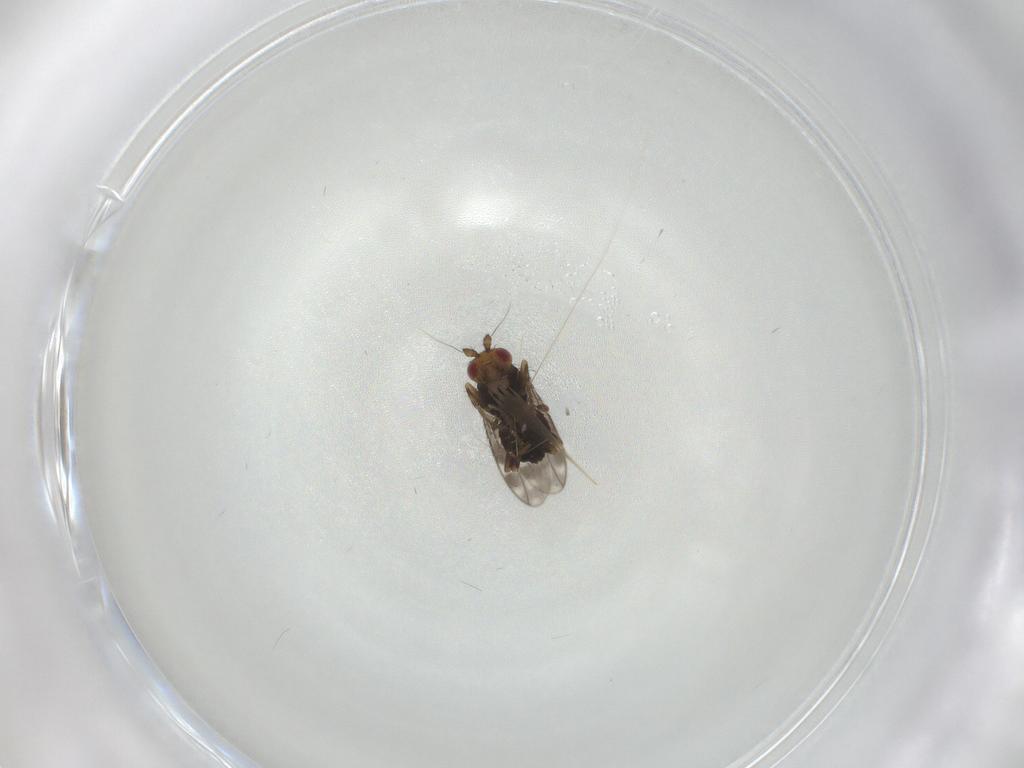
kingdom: Animalia
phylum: Arthropoda
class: Insecta
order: Diptera
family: Sphaeroceridae
